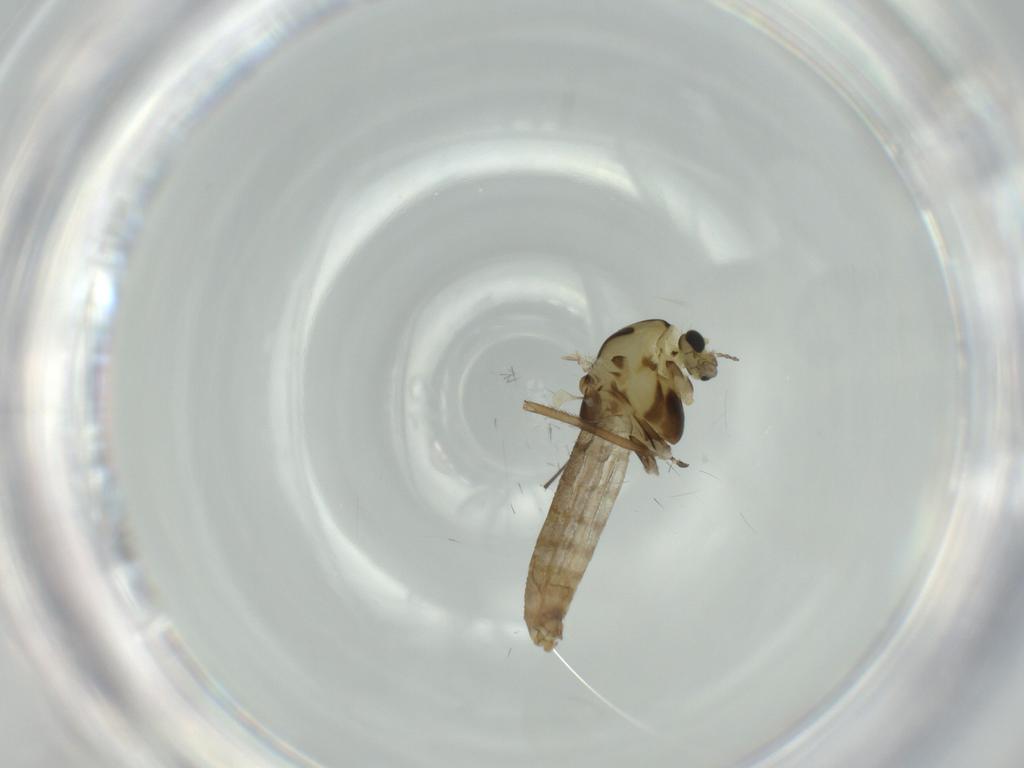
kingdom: Animalia
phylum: Arthropoda
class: Insecta
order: Diptera
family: Chironomidae
